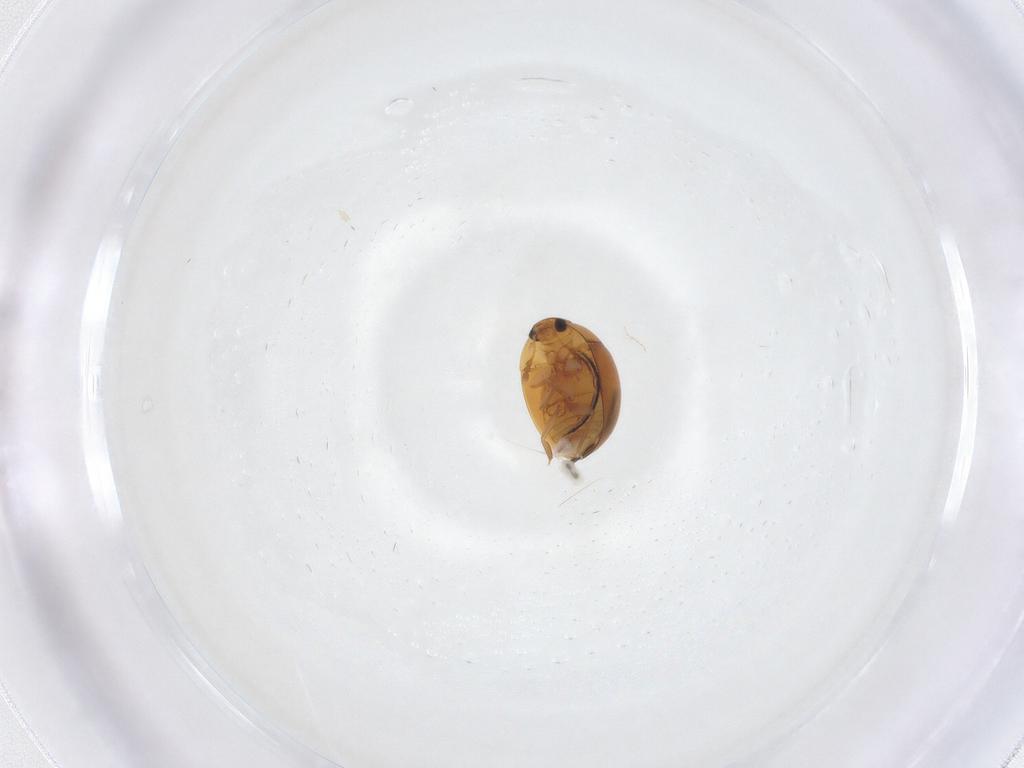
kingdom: Animalia
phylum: Arthropoda
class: Insecta
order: Coleoptera
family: Phalacridae
